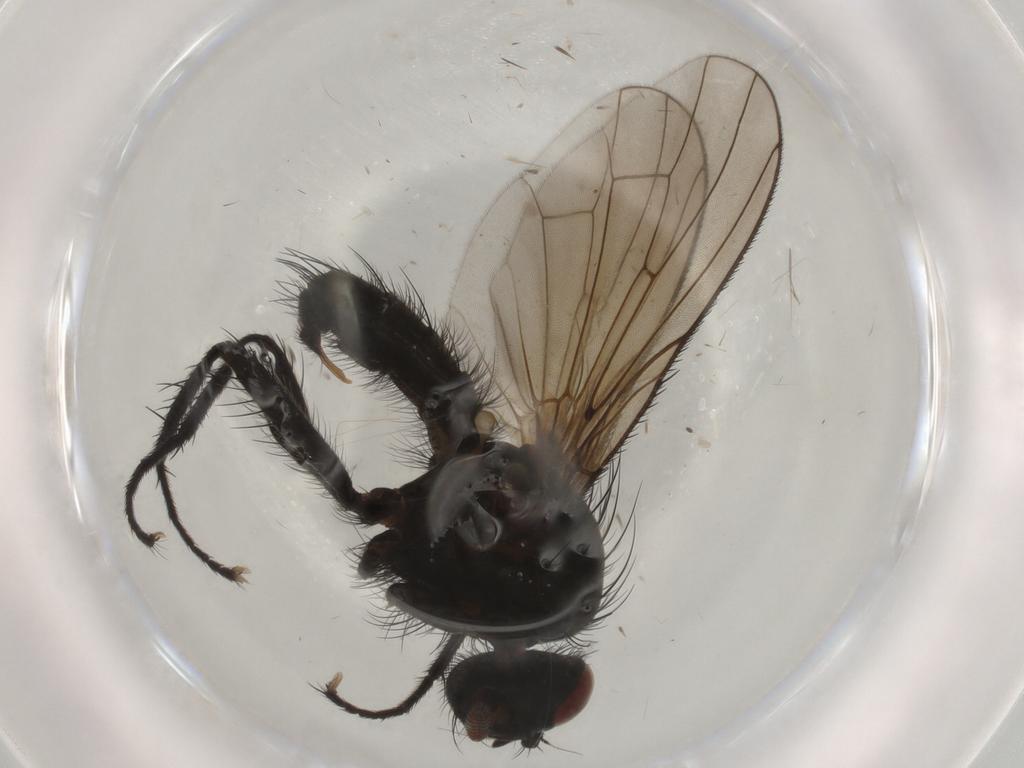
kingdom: Animalia
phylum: Arthropoda
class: Insecta
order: Diptera
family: Anthomyiidae
